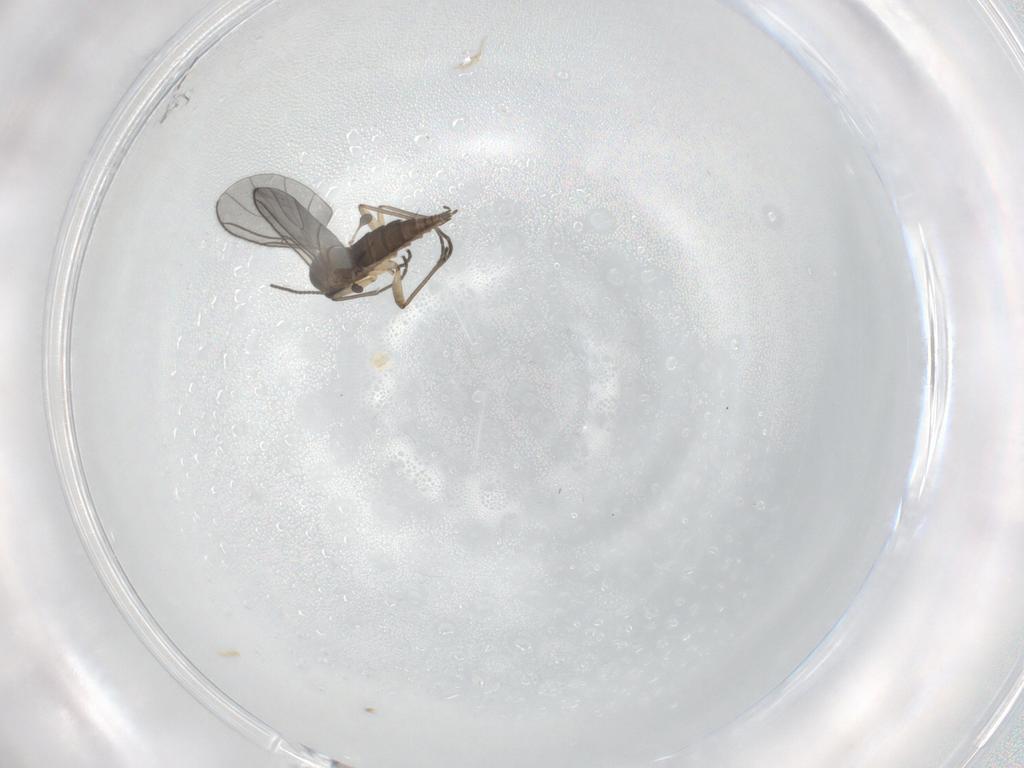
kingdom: Animalia
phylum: Arthropoda
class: Insecta
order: Diptera
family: Sciaridae
